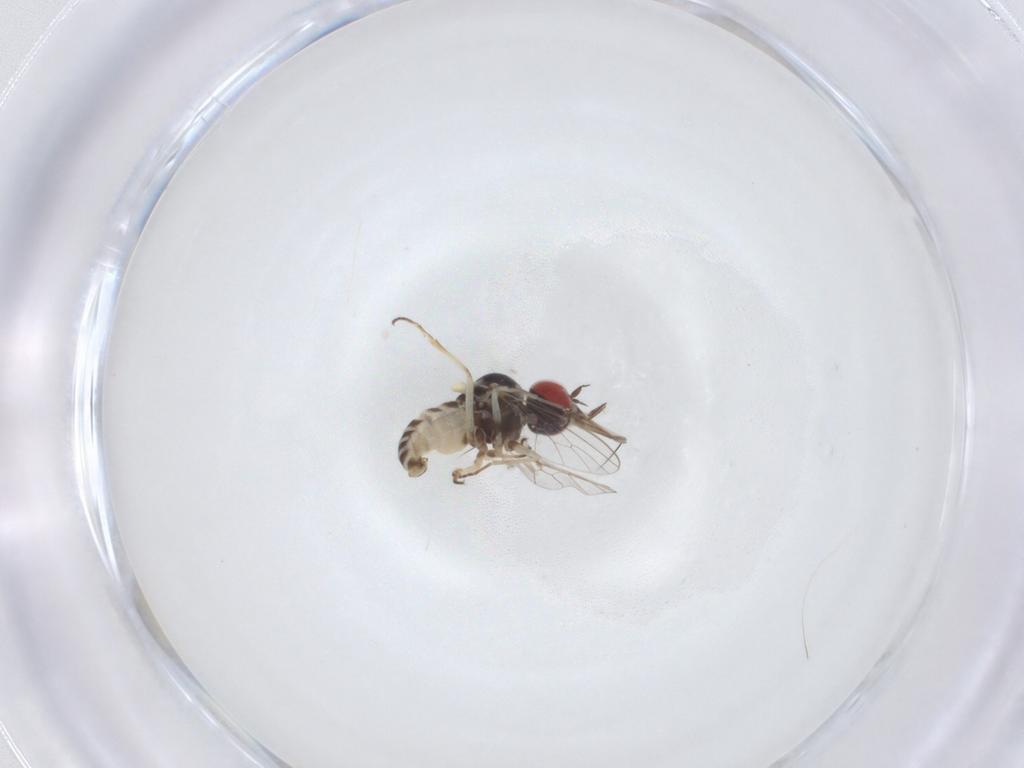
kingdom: Animalia
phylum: Arthropoda
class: Insecta
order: Diptera
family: Mythicomyiidae
